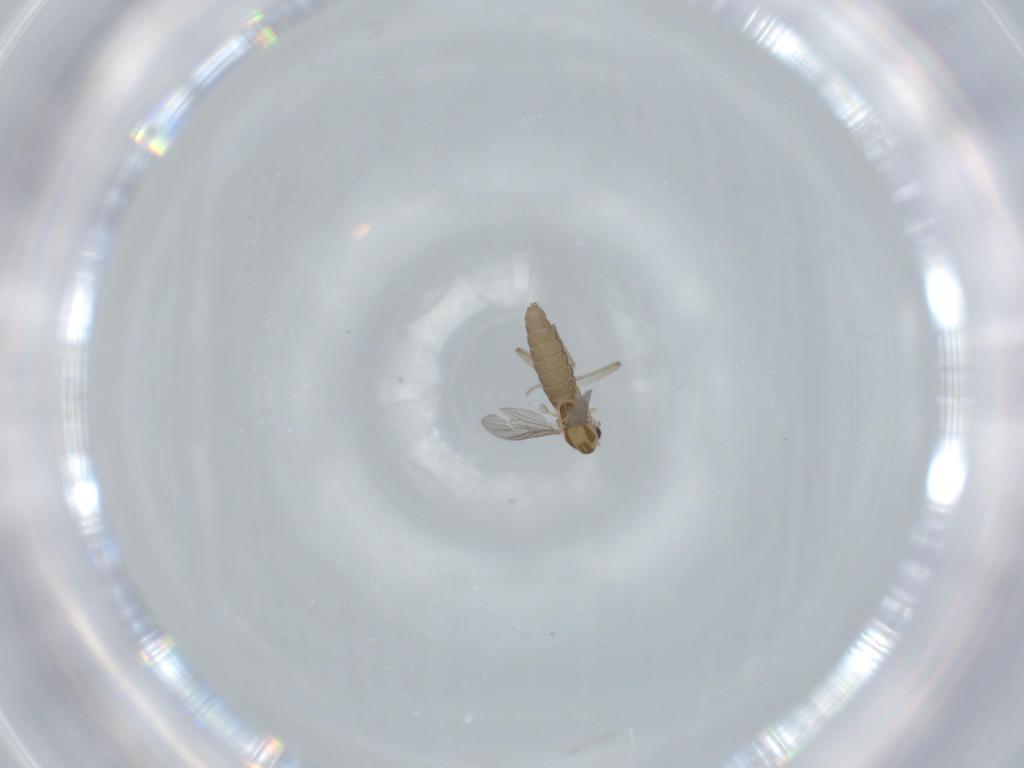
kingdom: Animalia
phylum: Arthropoda
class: Insecta
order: Diptera
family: Chironomidae
